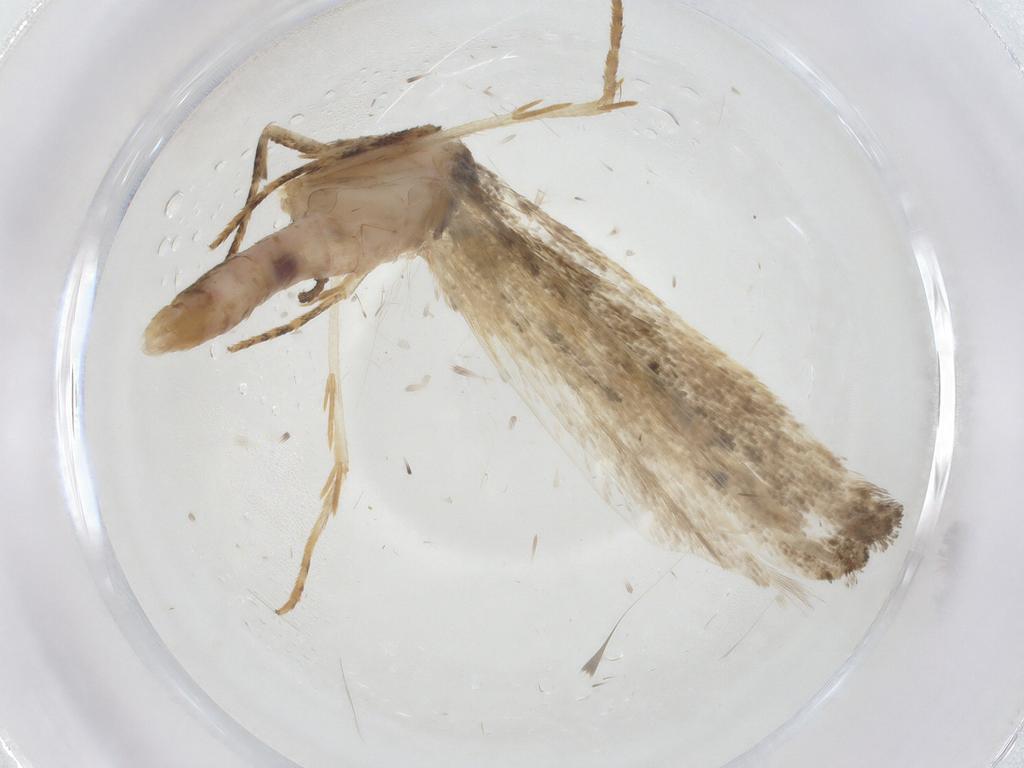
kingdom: Animalia
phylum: Arthropoda
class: Insecta
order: Lepidoptera
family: Gelechiidae
